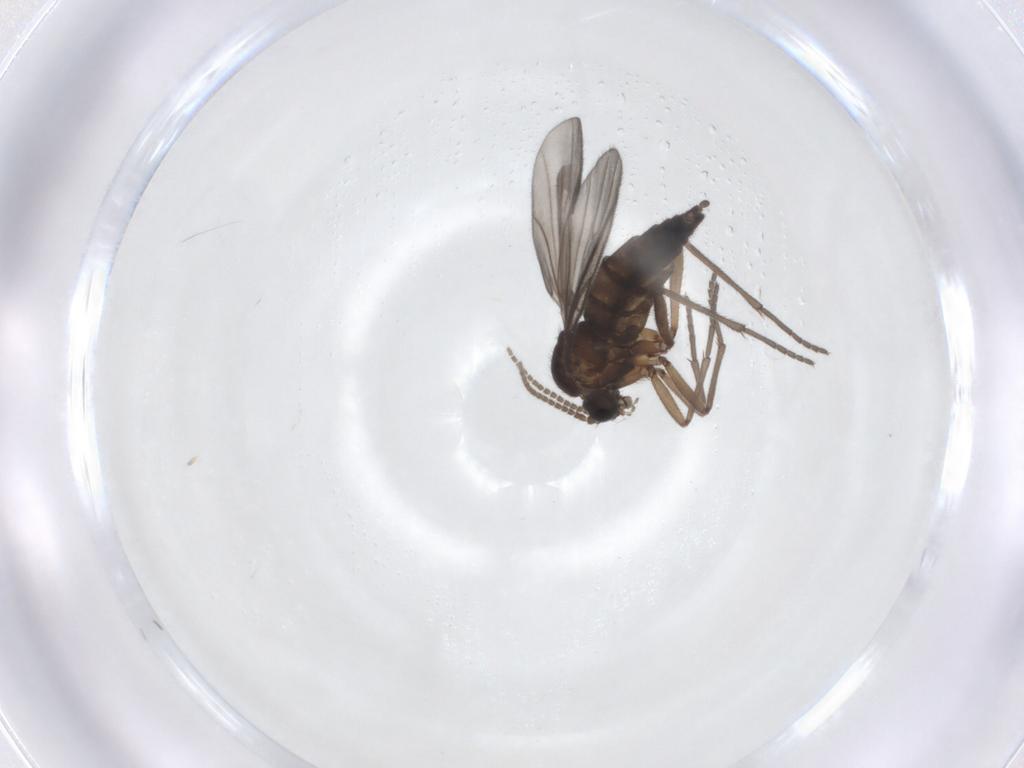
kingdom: Animalia
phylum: Arthropoda
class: Insecta
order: Diptera
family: Sciaridae
